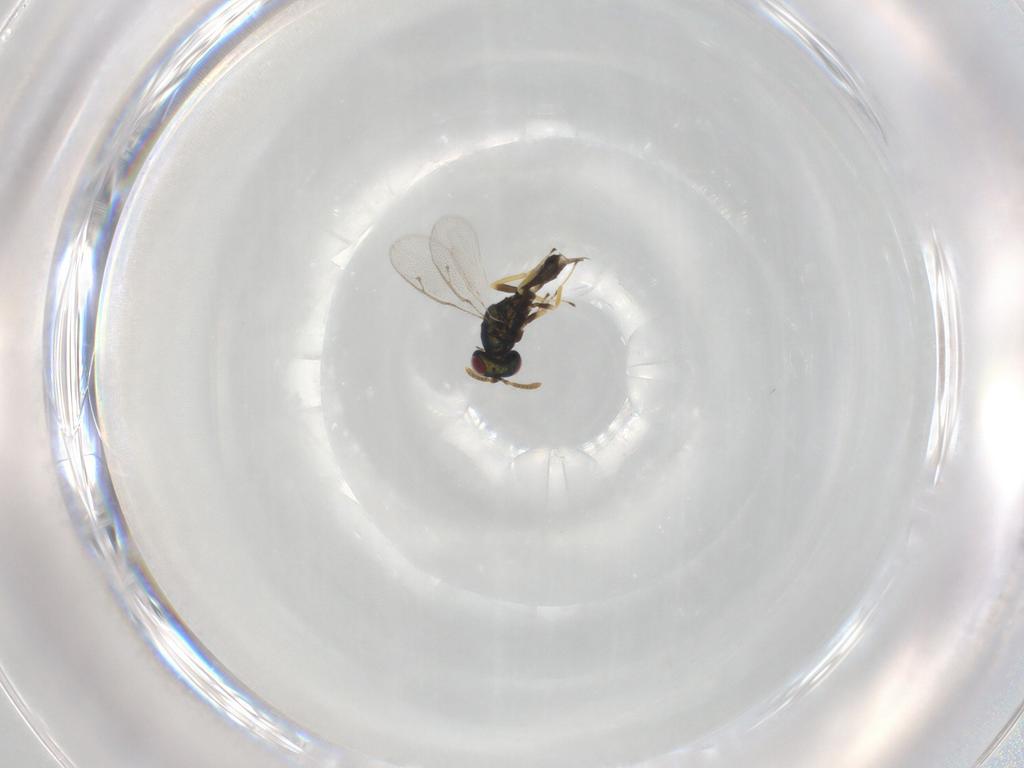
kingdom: Animalia
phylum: Arthropoda
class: Insecta
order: Hymenoptera
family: Pteromalidae
